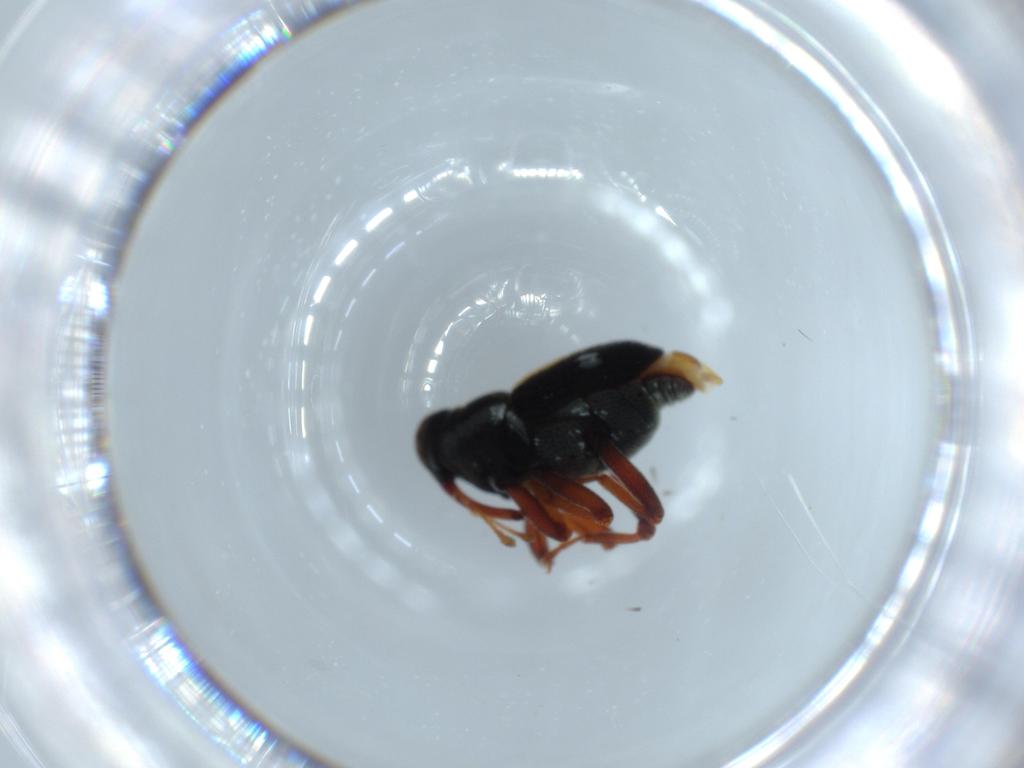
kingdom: Animalia
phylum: Arthropoda
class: Insecta
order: Coleoptera
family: Curculionidae
